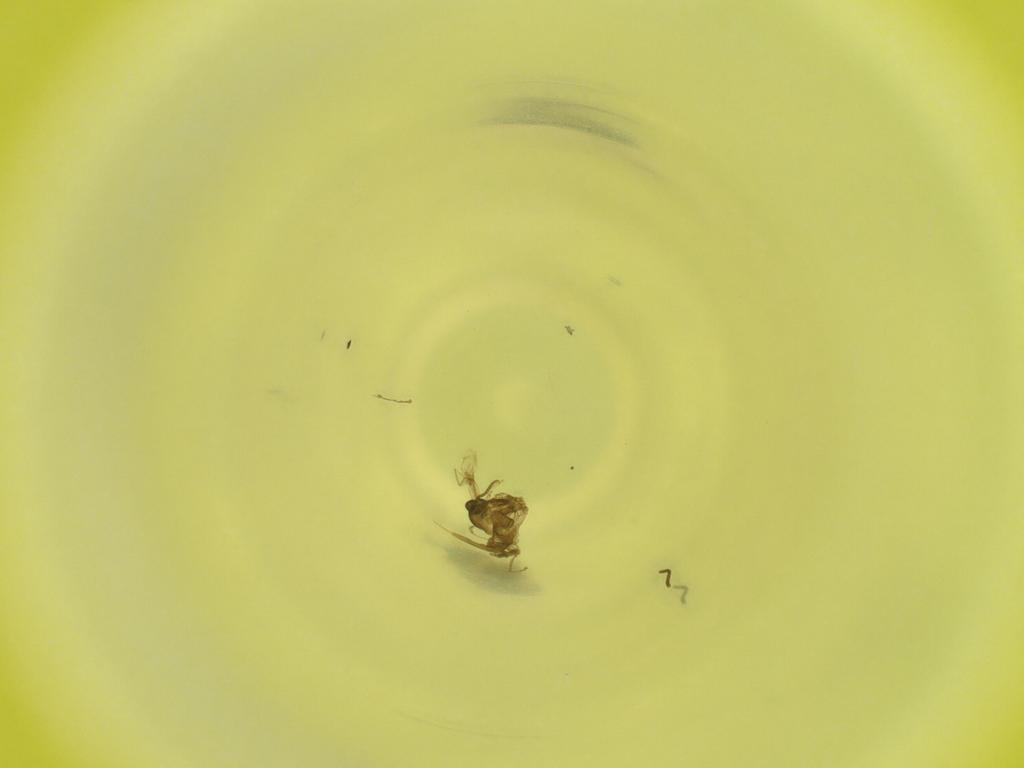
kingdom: Animalia
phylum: Arthropoda
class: Insecta
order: Diptera
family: Cecidomyiidae
